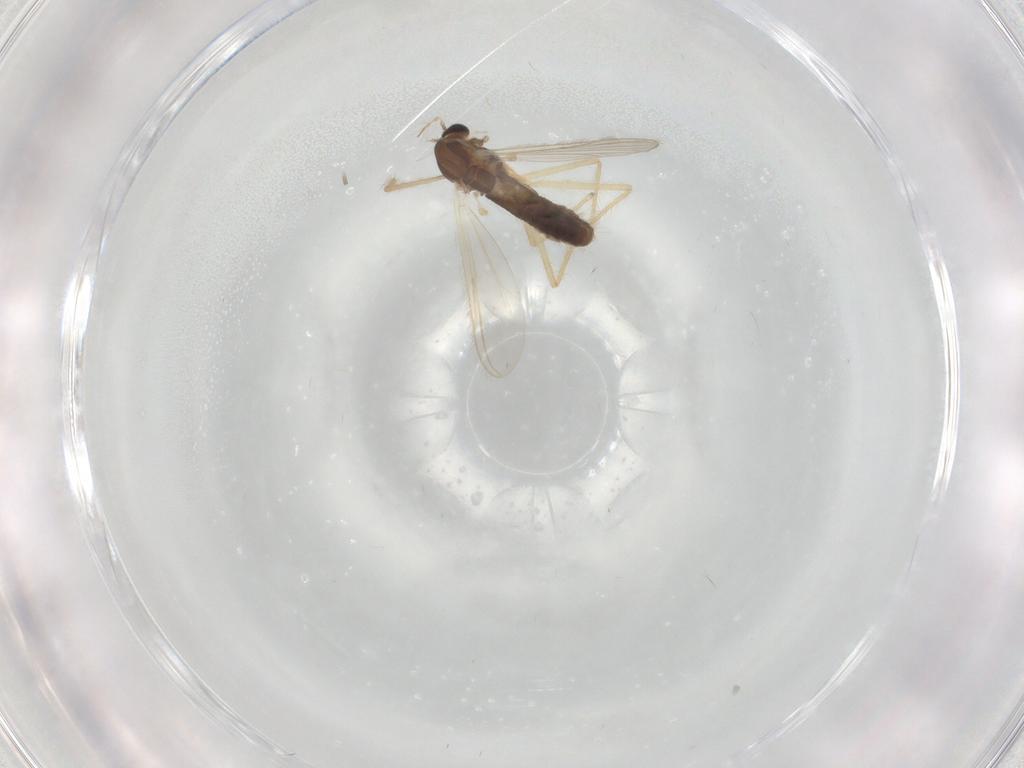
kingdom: Animalia
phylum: Arthropoda
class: Insecta
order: Diptera
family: Chironomidae
